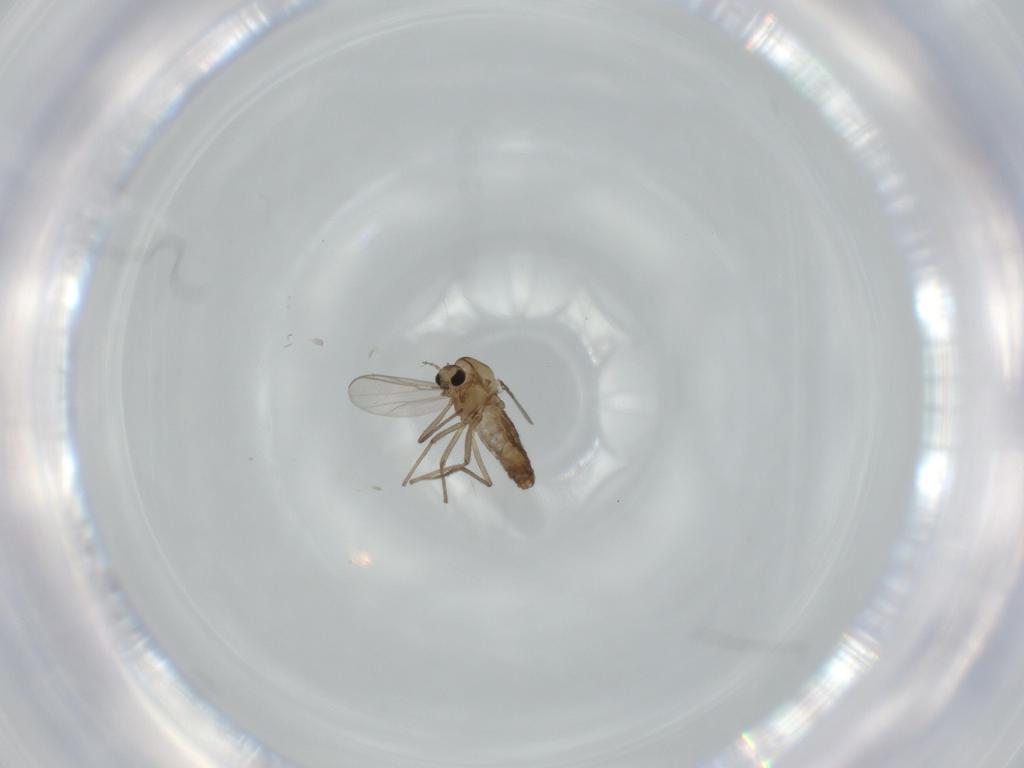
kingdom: Animalia
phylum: Arthropoda
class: Insecta
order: Diptera
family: Chironomidae
